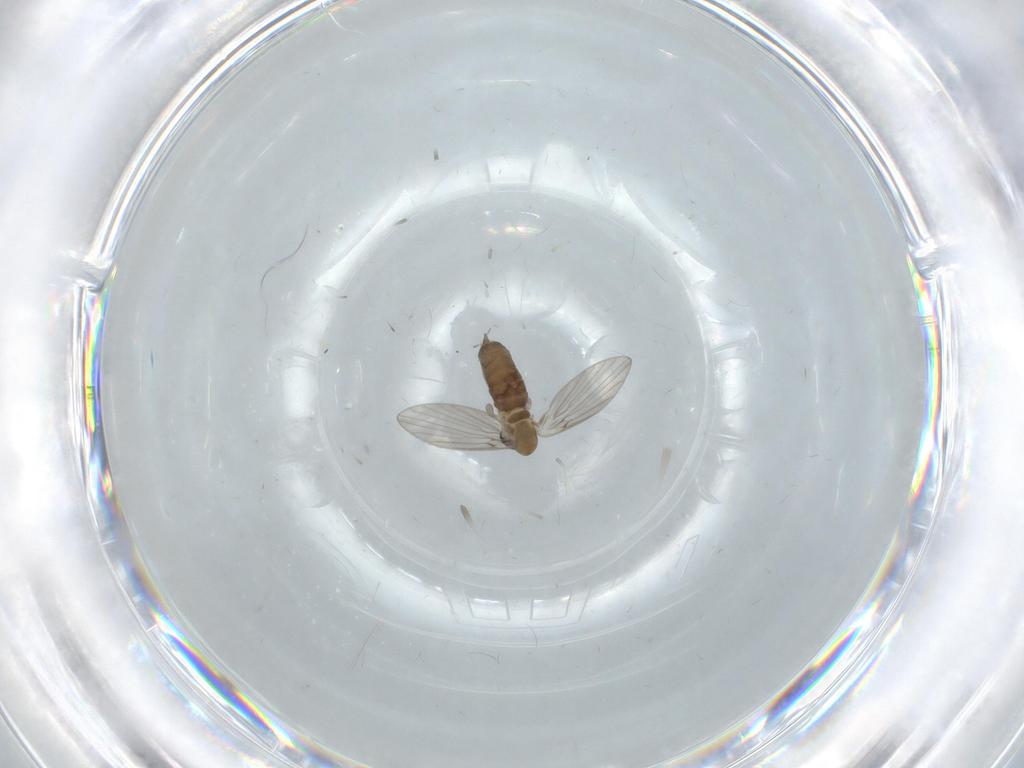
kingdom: Animalia
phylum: Arthropoda
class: Insecta
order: Diptera
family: Psychodidae
